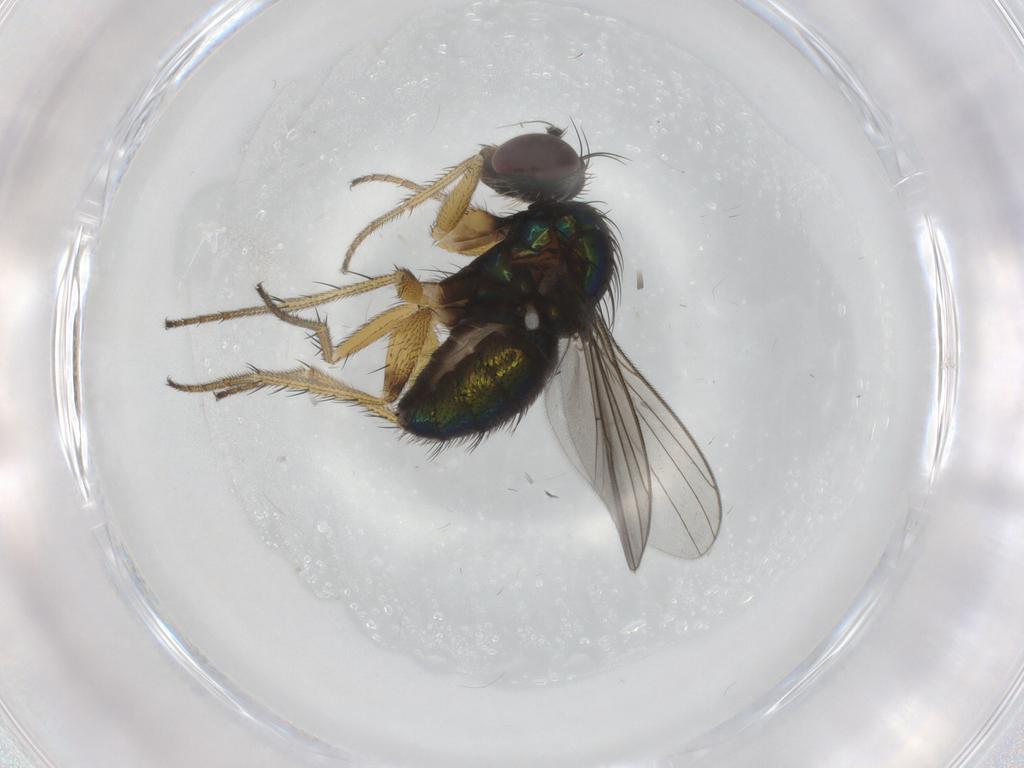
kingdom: Animalia
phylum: Arthropoda
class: Insecta
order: Diptera
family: Dolichopodidae
